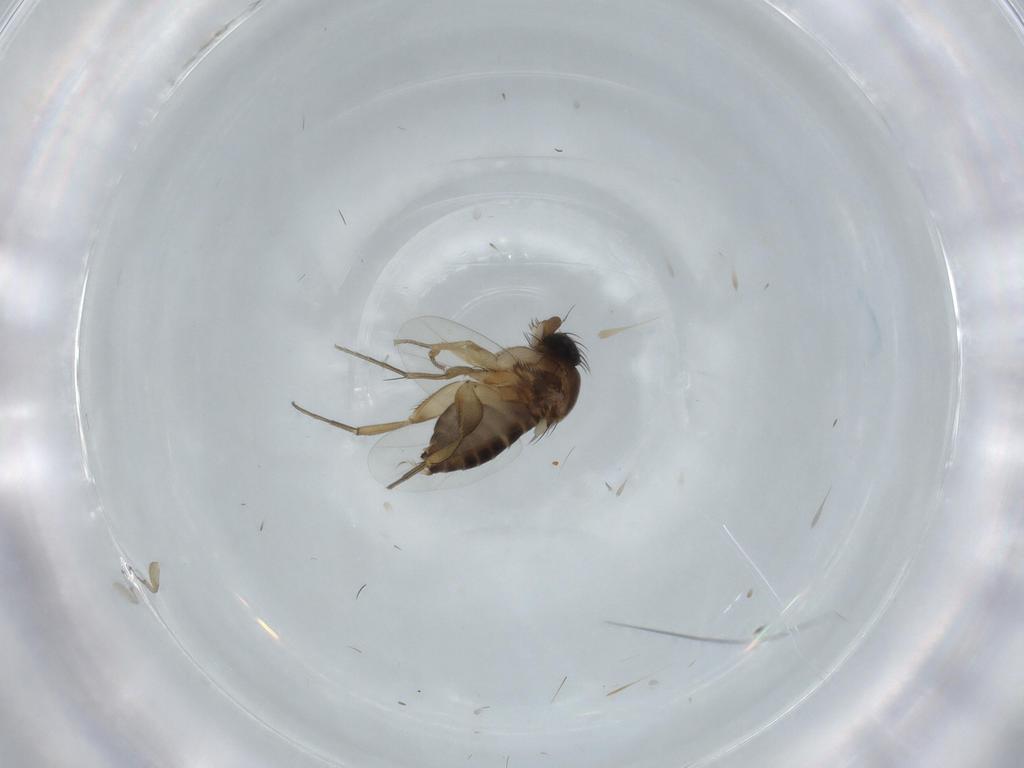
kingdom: Animalia
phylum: Arthropoda
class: Insecta
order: Diptera
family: Phoridae
